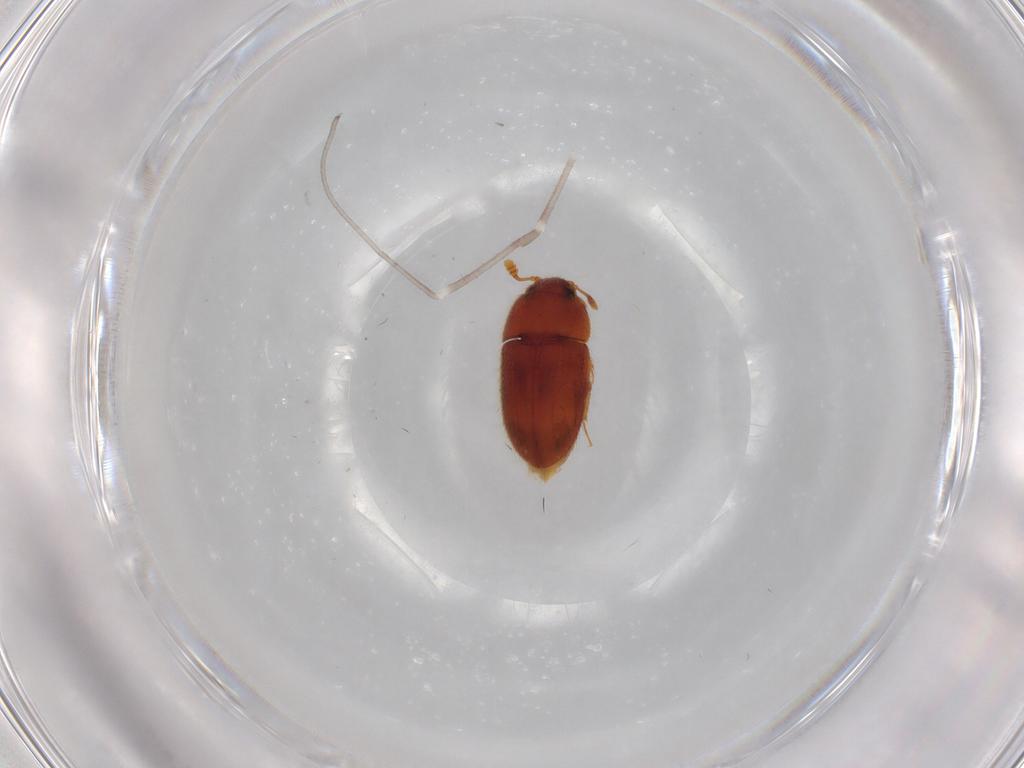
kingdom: Animalia
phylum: Arthropoda
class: Insecta
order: Coleoptera
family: Biphyllidae
